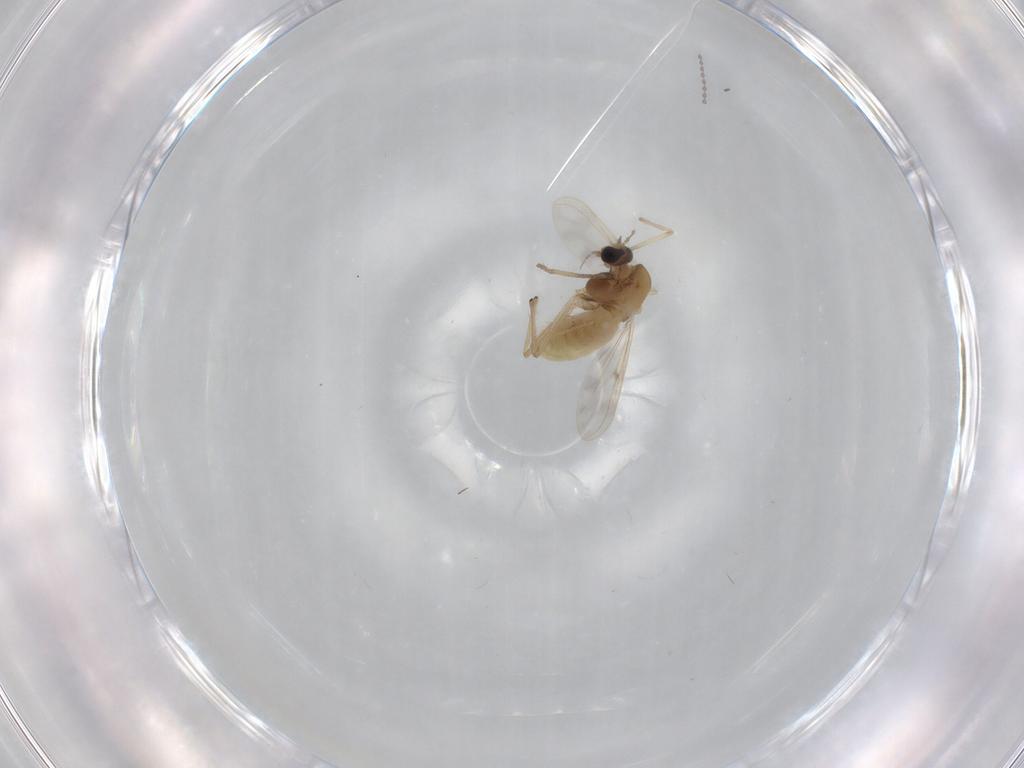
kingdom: Animalia
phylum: Arthropoda
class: Insecta
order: Diptera
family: Chironomidae
